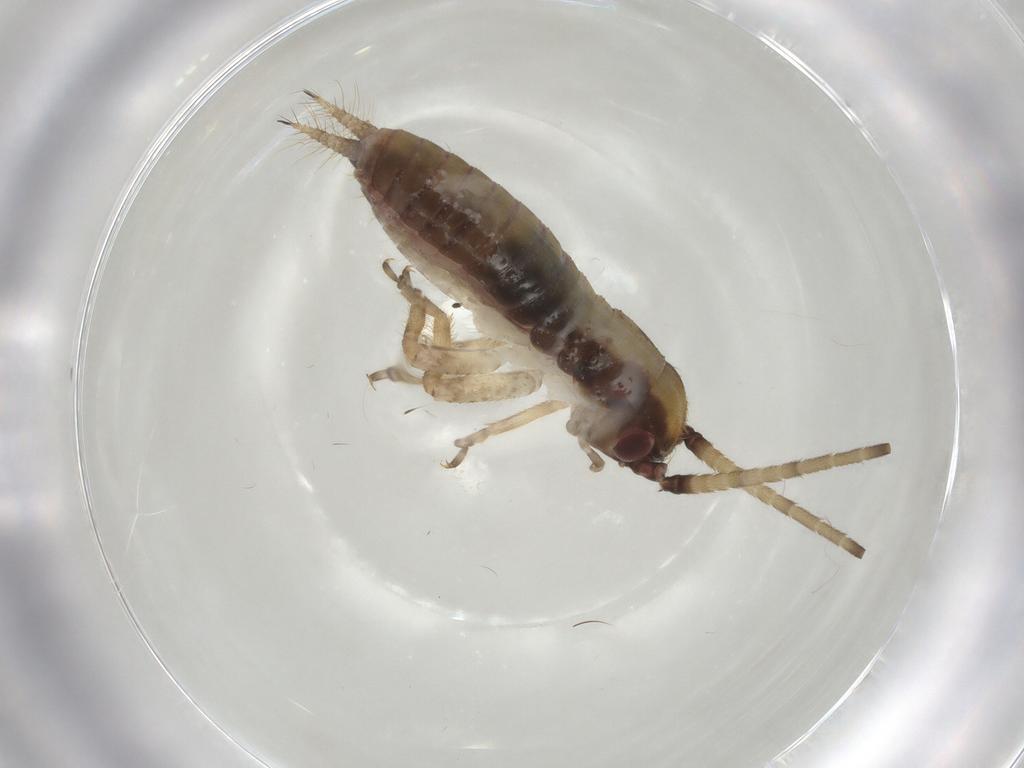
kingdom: Animalia
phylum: Arthropoda
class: Insecta
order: Orthoptera
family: Gryllidae
